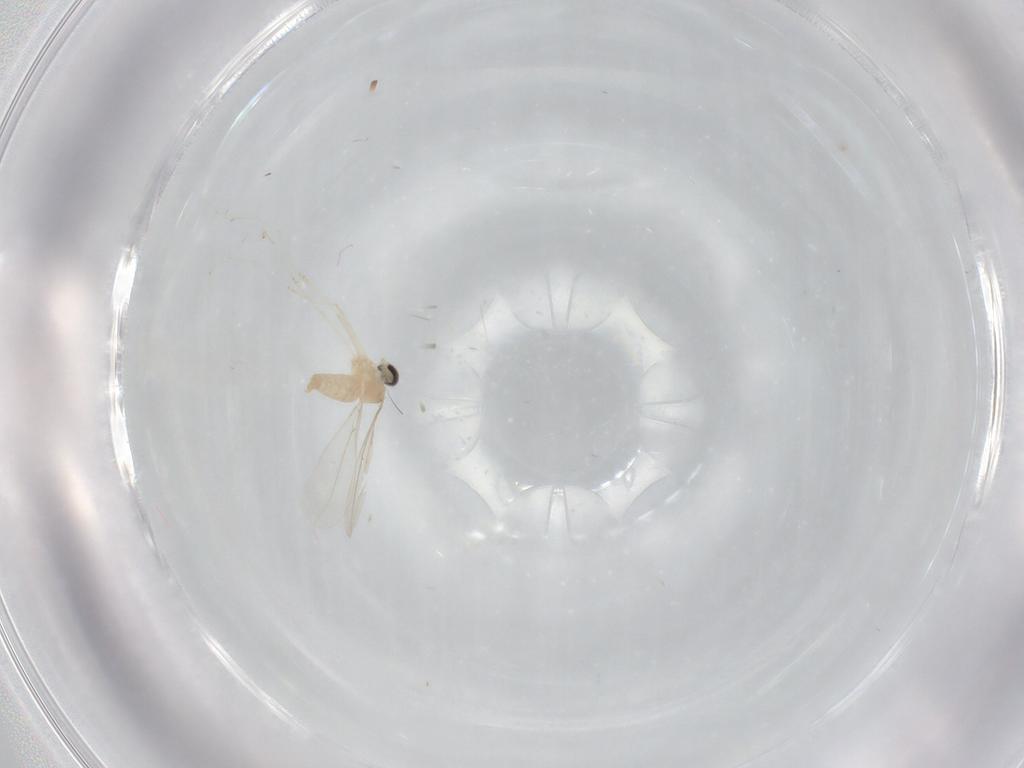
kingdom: Animalia
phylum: Arthropoda
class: Insecta
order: Diptera
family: Cecidomyiidae
